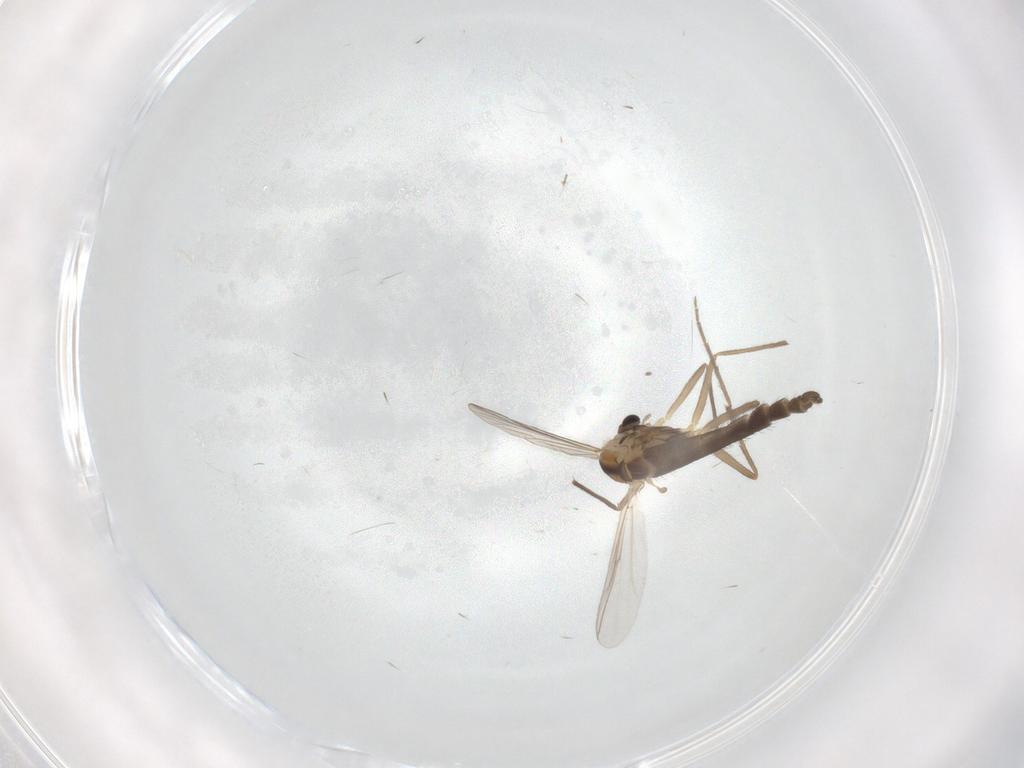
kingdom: Animalia
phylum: Arthropoda
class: Insecta
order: Diptera
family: Chironomidae
